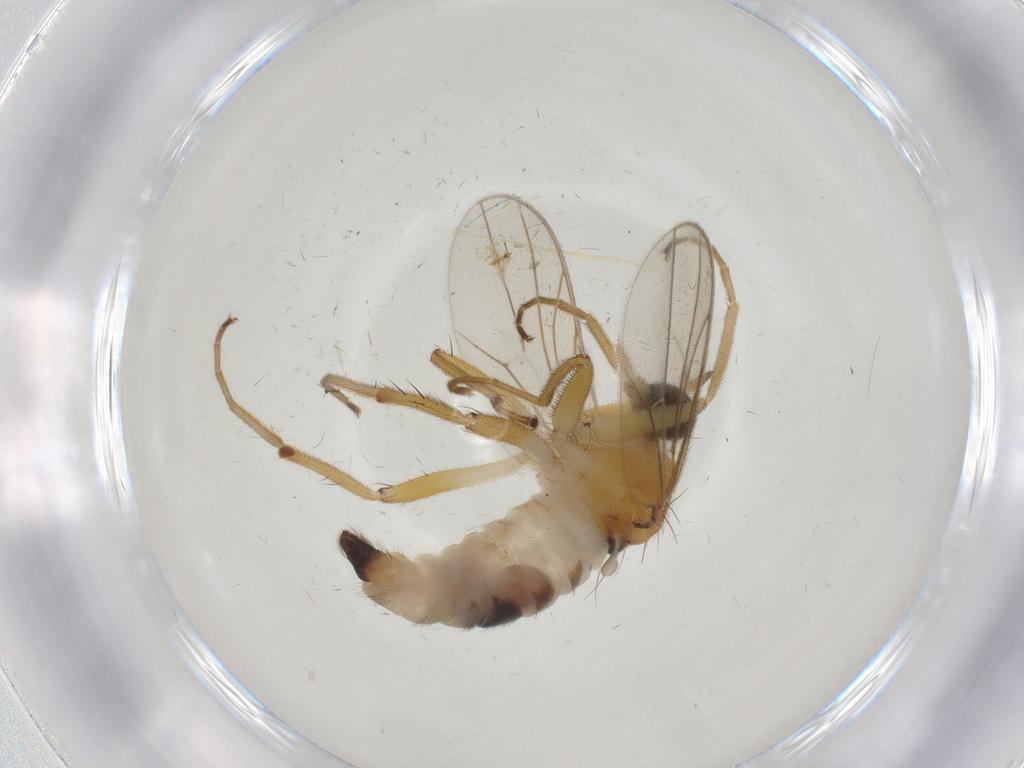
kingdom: Animalia
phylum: Arthropoda
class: Insecta
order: Diptera
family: Hybotidae
